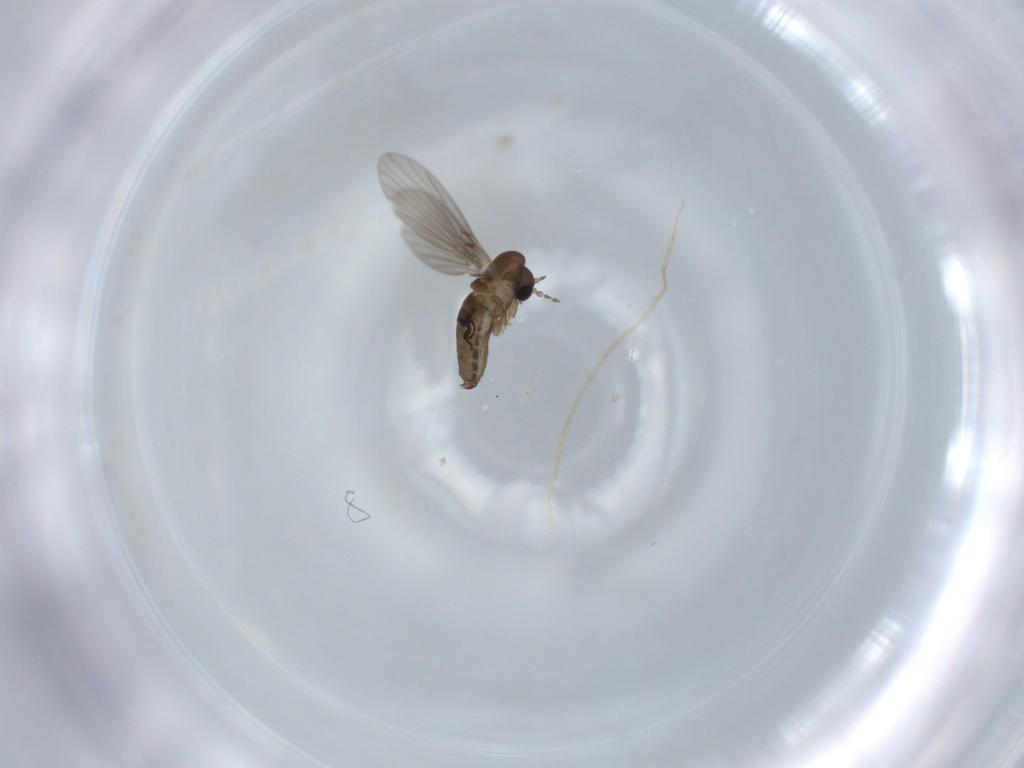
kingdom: Animalia
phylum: Arthropoda
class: Insecta
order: Diptera
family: Psychodidae
